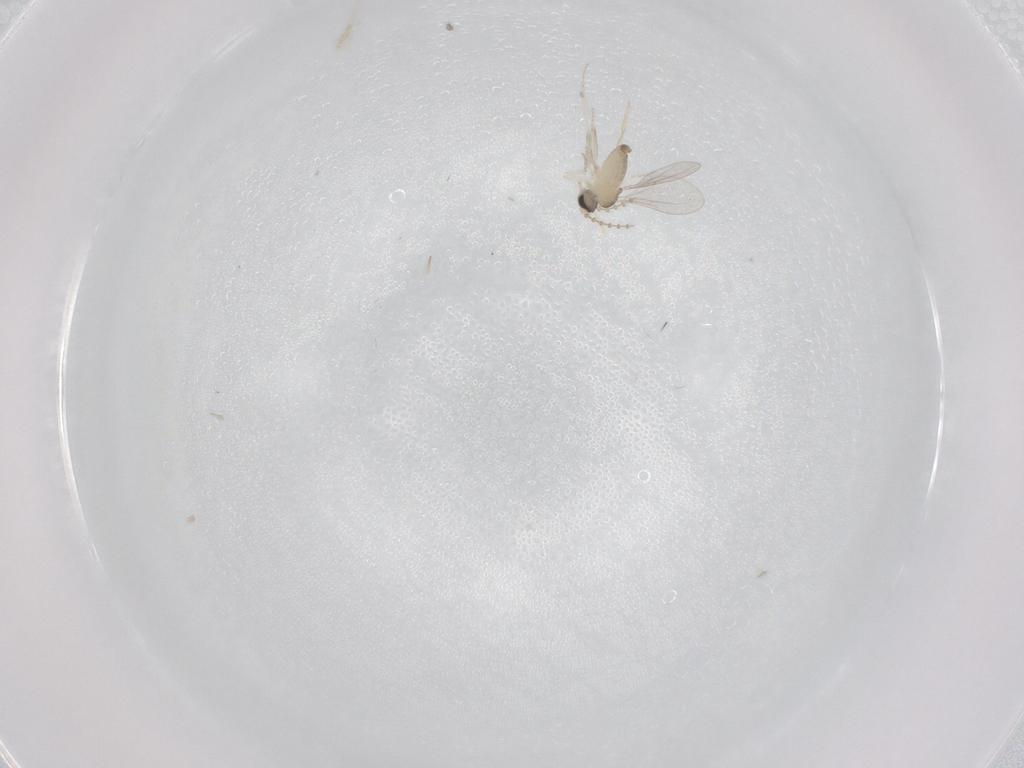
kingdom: Animalia
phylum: Arthropoda
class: Insecta
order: Diptera
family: Cecidomyiidae
